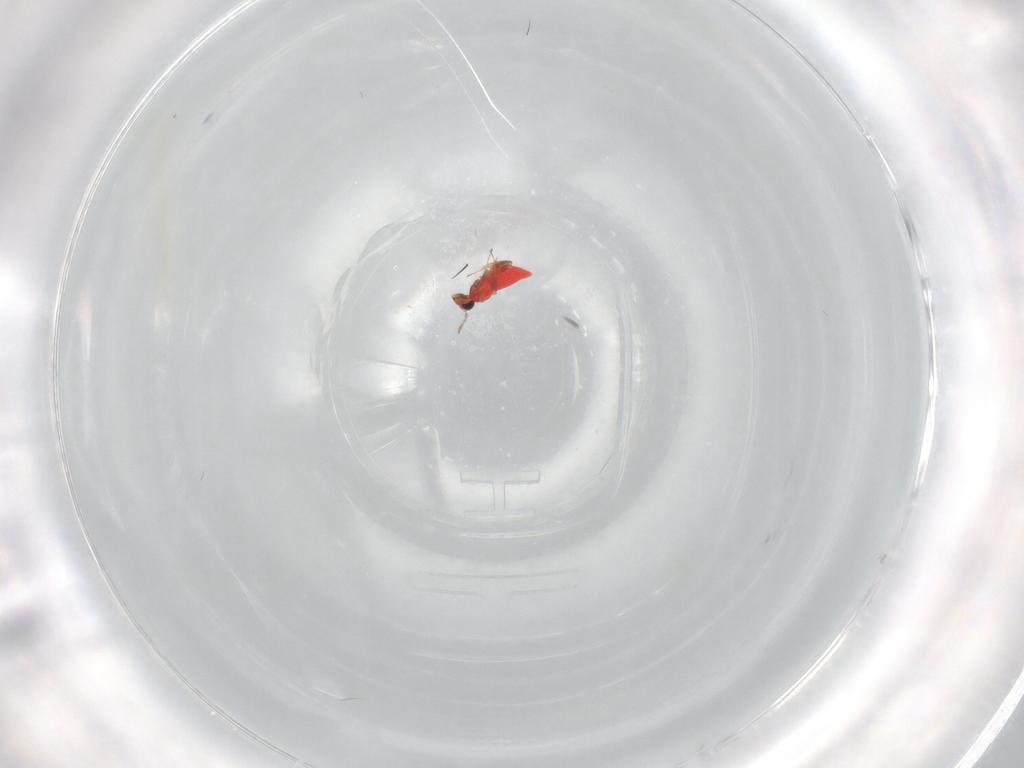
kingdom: Animalia
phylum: Arthropoda
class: Insecta
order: Hymenoptera
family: Trichogrammatidae
